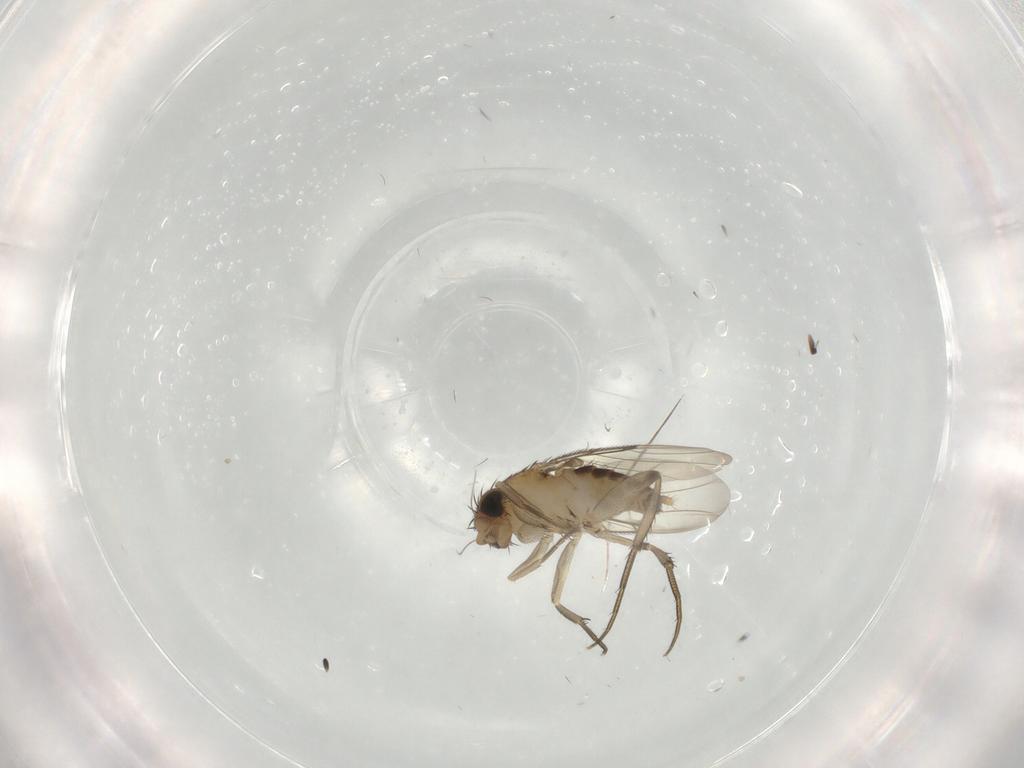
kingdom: Animalia
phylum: Arthropoda
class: Insecta
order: Diptera
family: Phoridae
